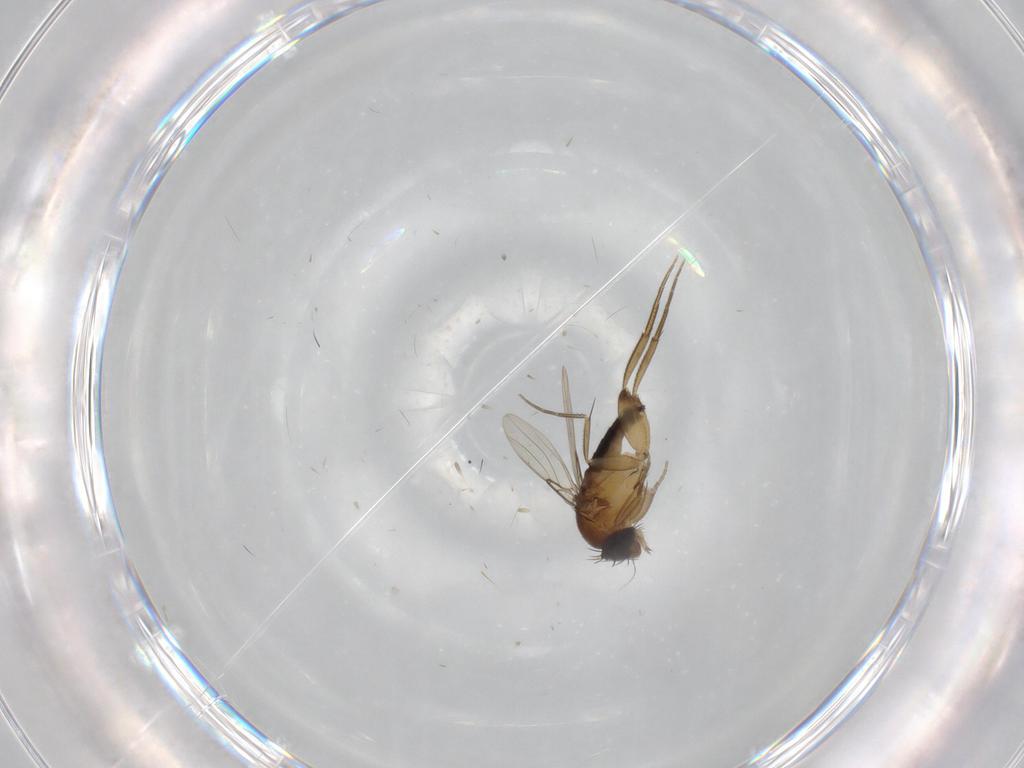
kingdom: Animalia
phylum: Arthropoda
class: Insecta
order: Diptera
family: Phoridae
